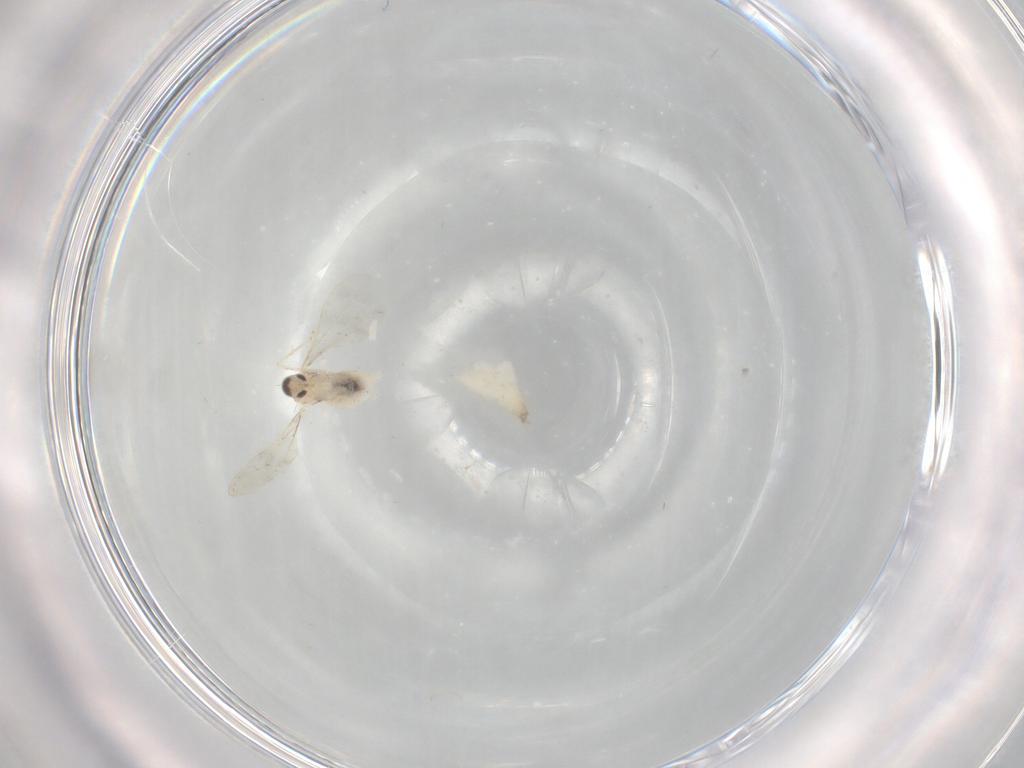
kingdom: Animalia
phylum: Arthropoda
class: Insecta
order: Diptera
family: Cecidomyiidae
